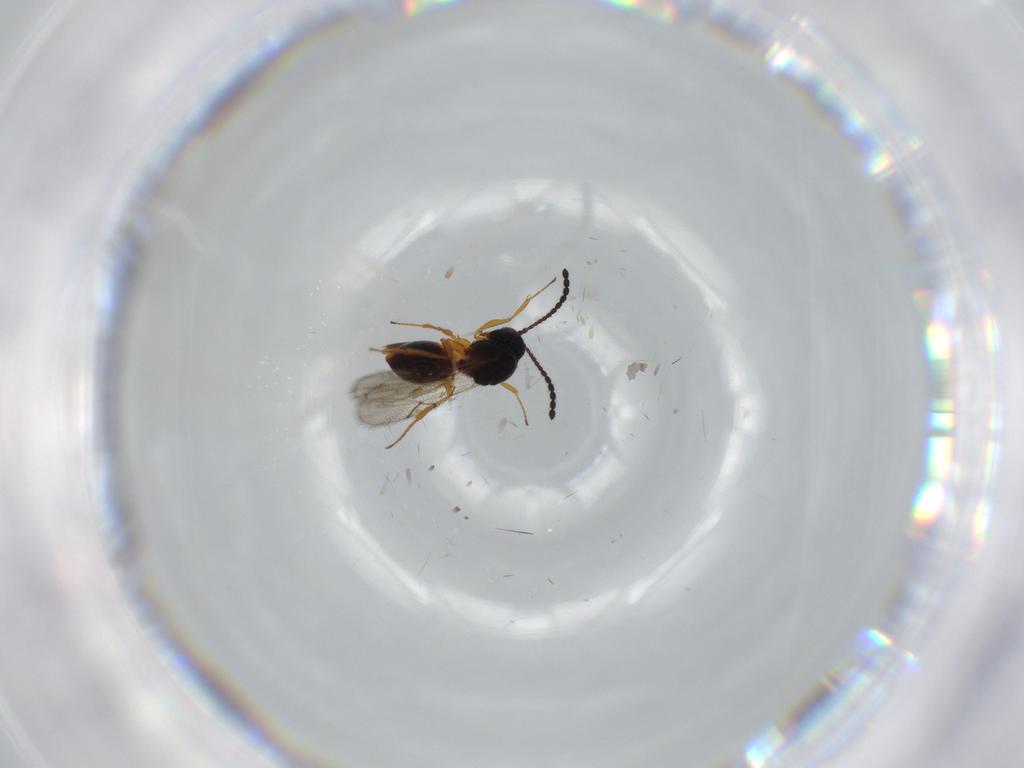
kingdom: Animalia
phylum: Arthropoda
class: Insecta
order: Hymenoptera
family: Figitidae
